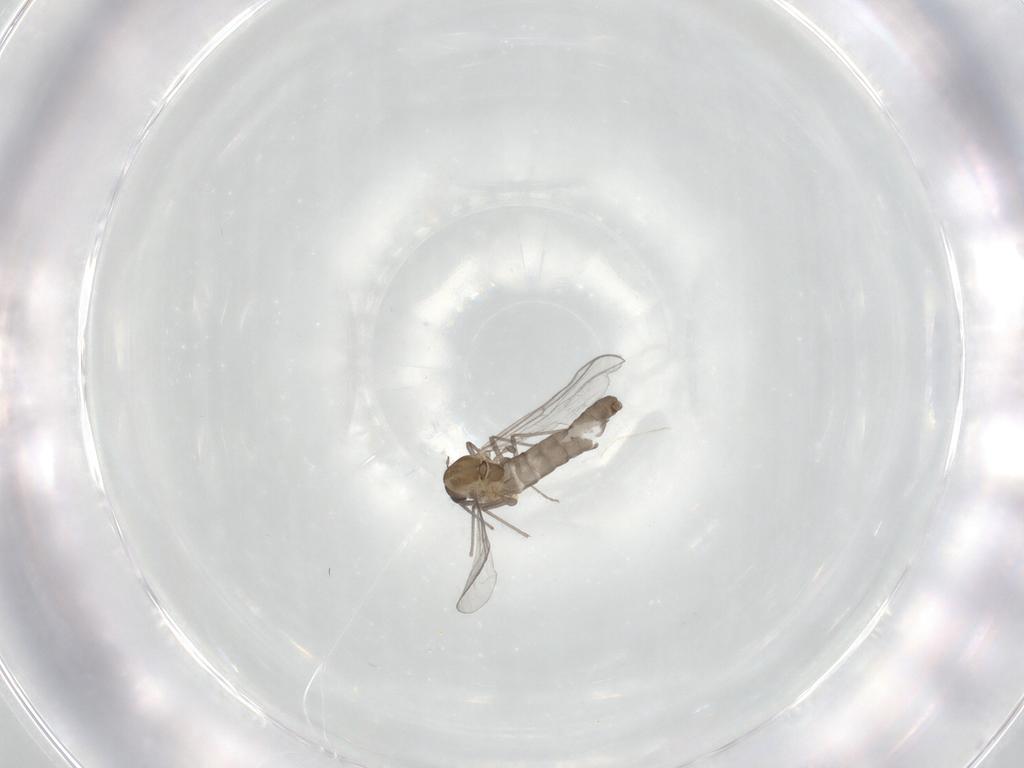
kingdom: Animalia
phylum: Arthropoda
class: Insecta
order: Diptera
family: Chironomidae
